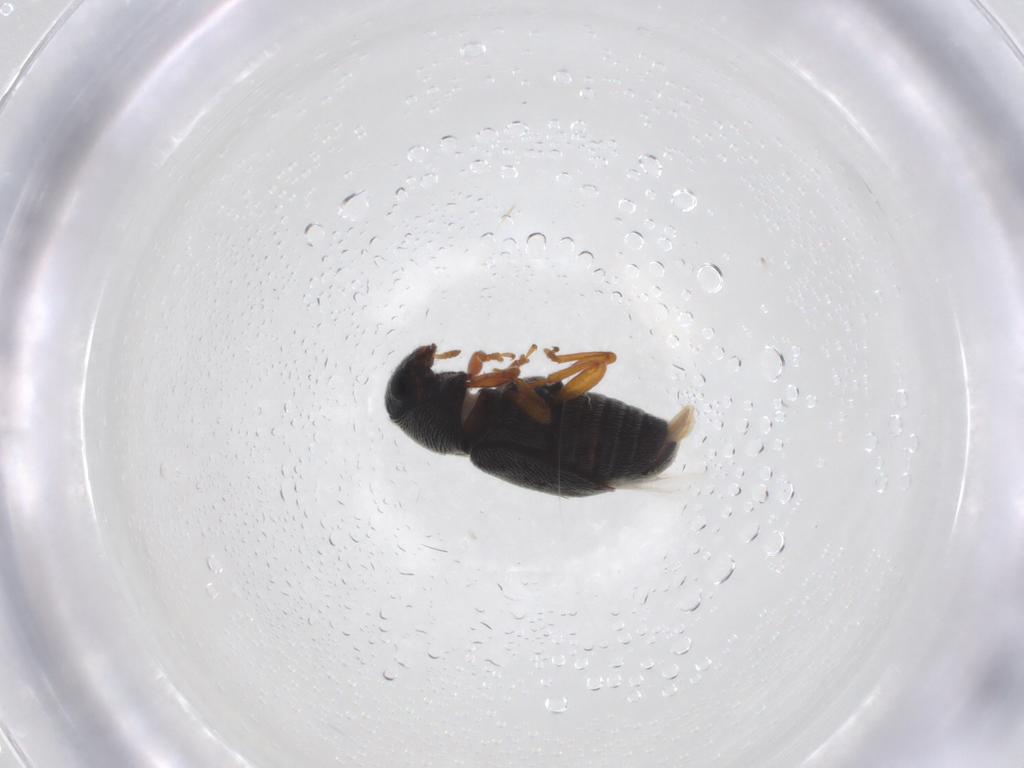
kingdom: Animalia
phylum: Arthropoda
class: Insecta
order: Coleoptera
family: Anthribidae
